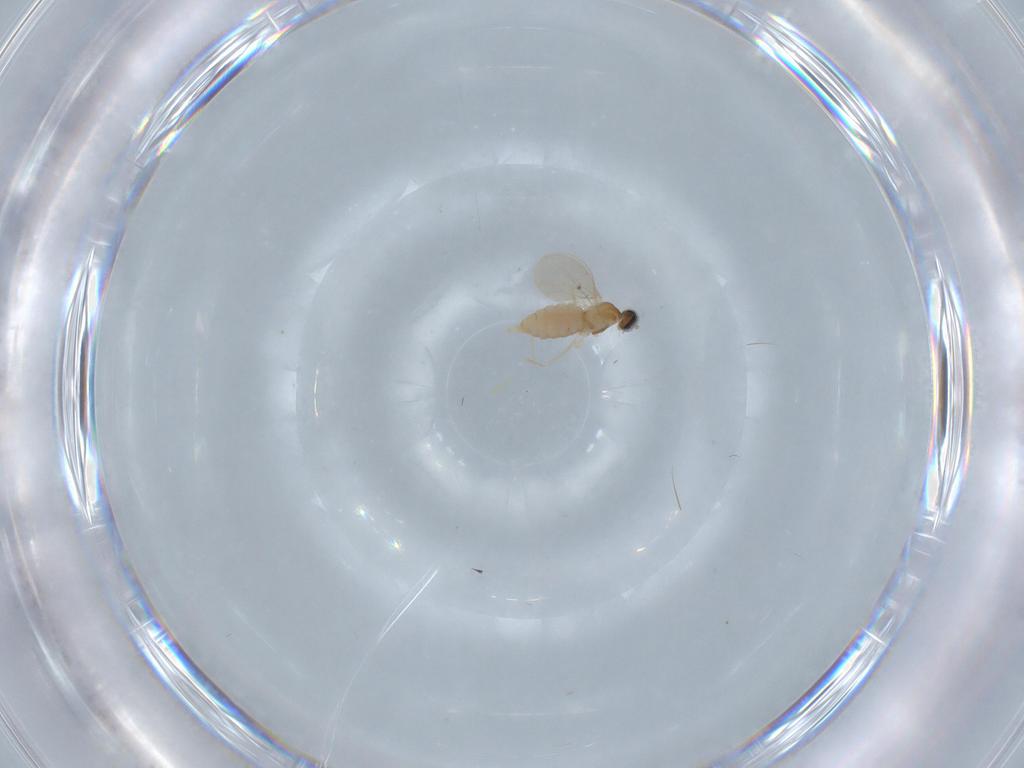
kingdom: Animalia
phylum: Arthropoda
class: Insecta
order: Diptera
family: Cecidomyiidae
